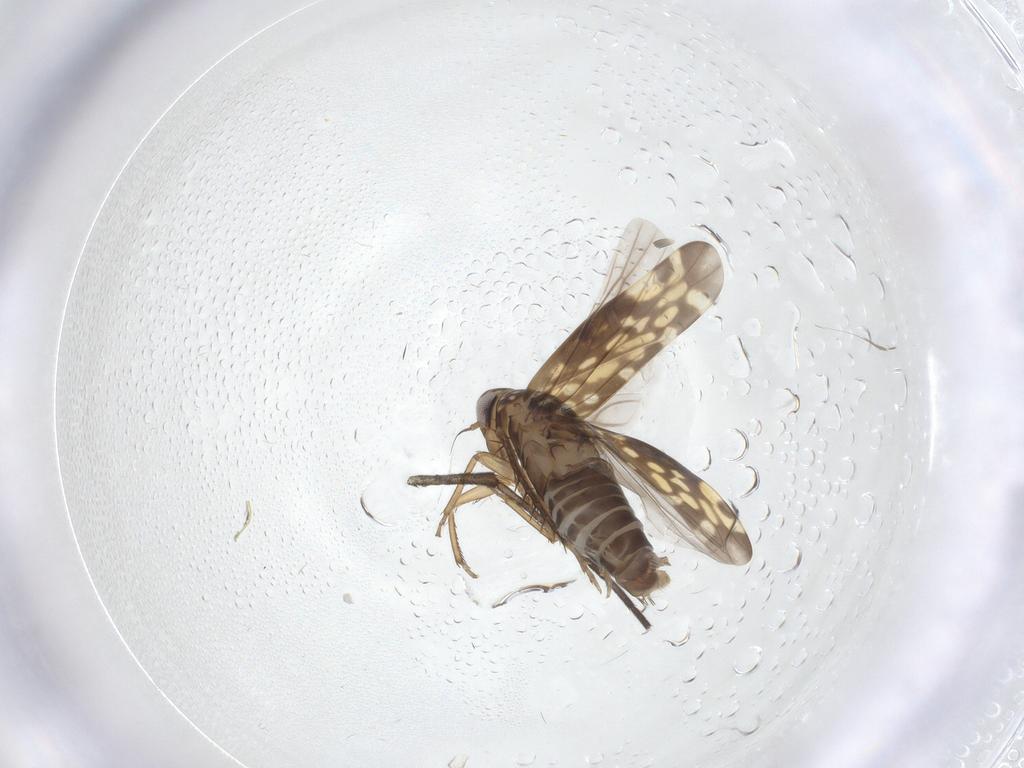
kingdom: Animalia
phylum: Arthropoda
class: Insecta
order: Hemiptera
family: Cicadellidae
